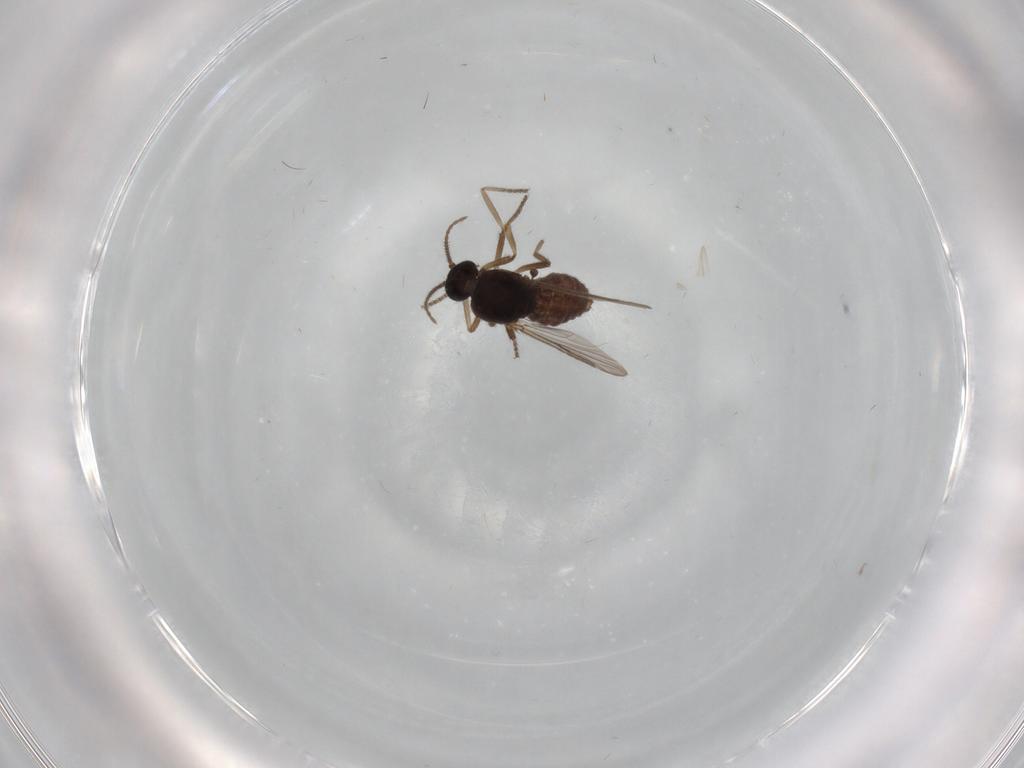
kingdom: Animalia
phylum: Arthropoda
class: Insecta
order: Diptera
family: Ceratopogonidae
